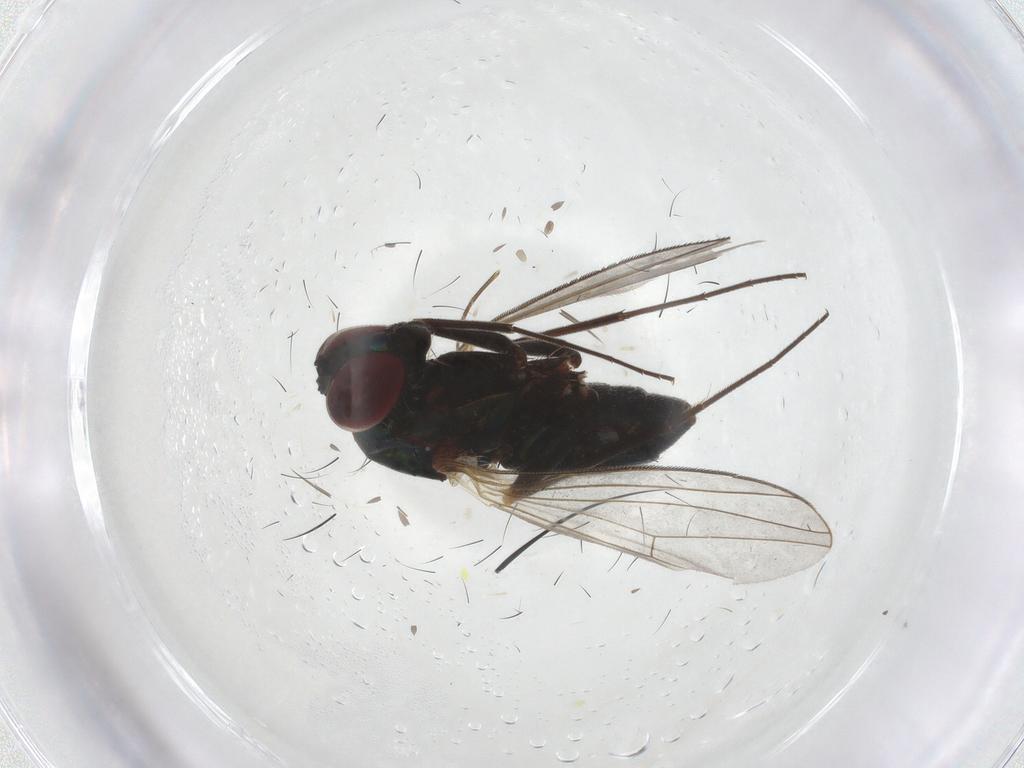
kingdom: Animalia
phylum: Arthropoda
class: Insecta
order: Diptera
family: Dolichopodidae
